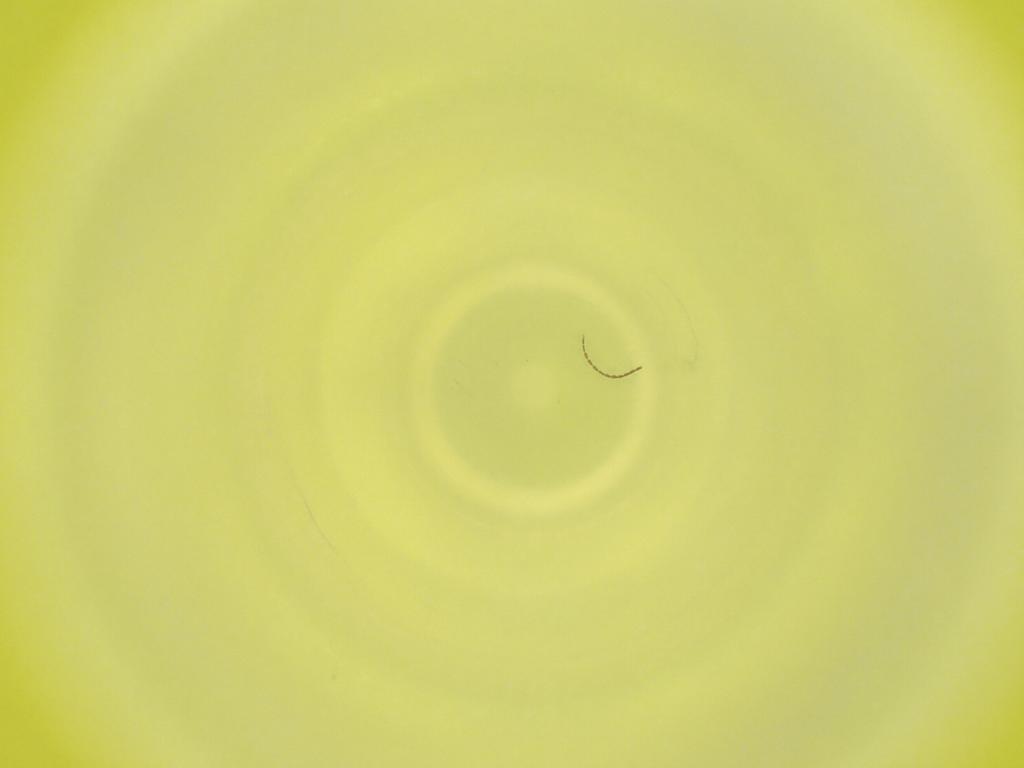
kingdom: Animalia
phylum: Arthropoda
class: Insecta
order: Diptera
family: Cecidomyiidae
